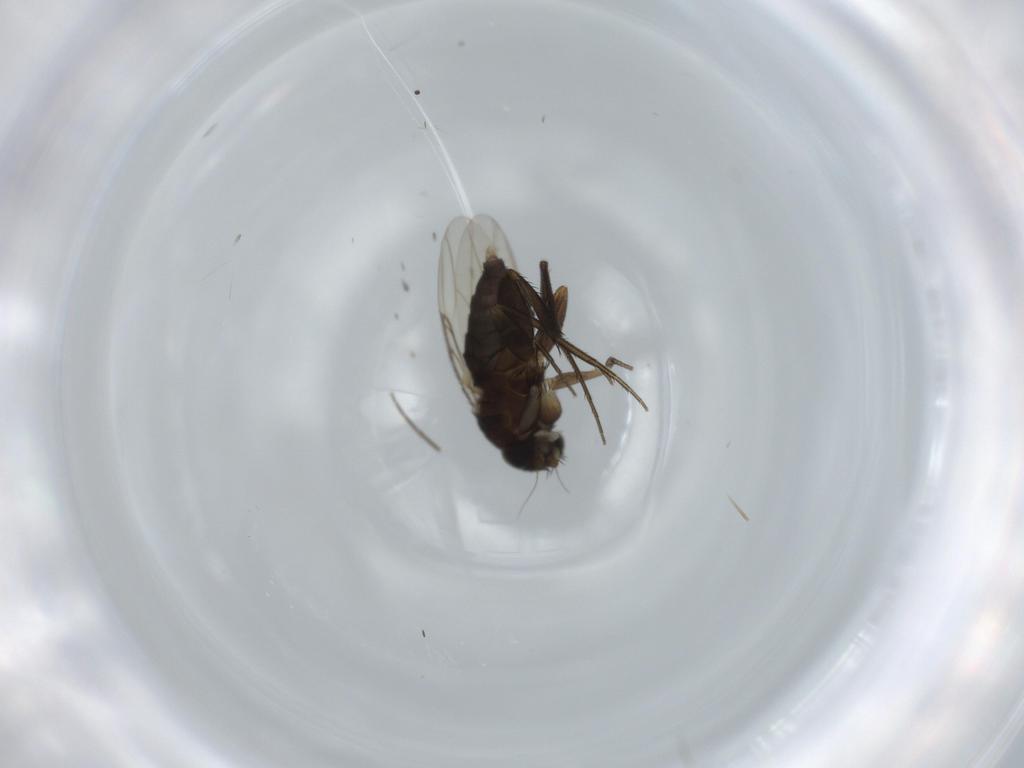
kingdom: Animalia
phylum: Arthropoda
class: Insecta
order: Diptera
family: Phoridae
